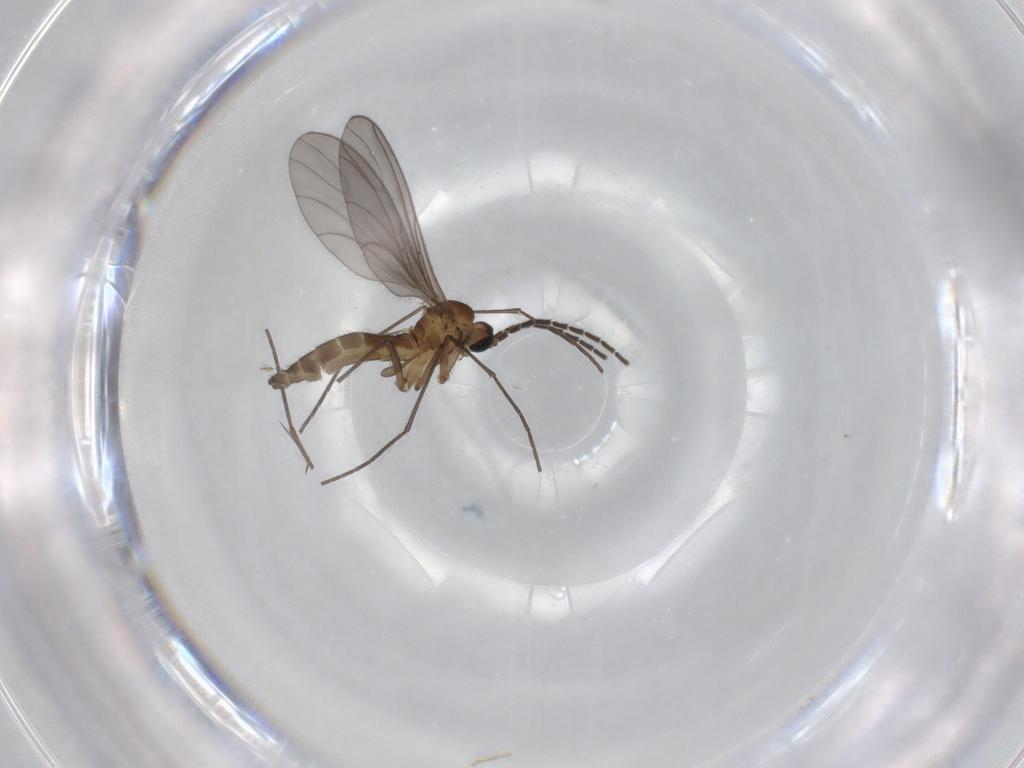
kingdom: Animalia
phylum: Arthropoda
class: Insecta
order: Diptera
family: Sciaridae
